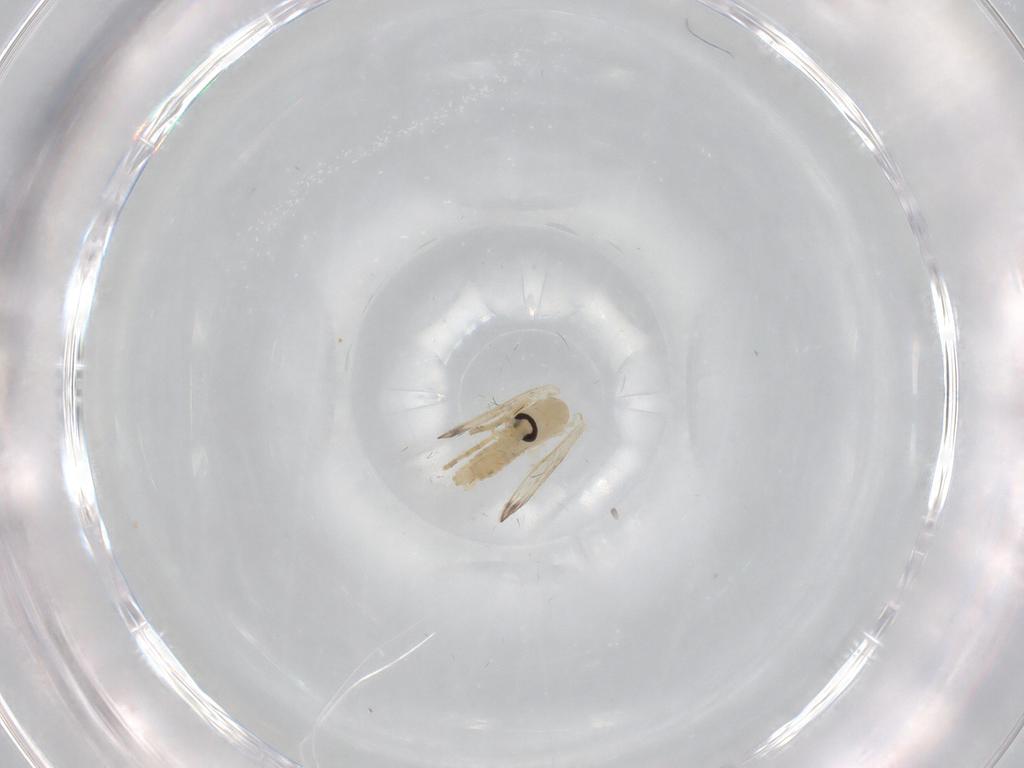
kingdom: Animalia
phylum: Arthropoda
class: Insecta
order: Diptera
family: Psychodidae
